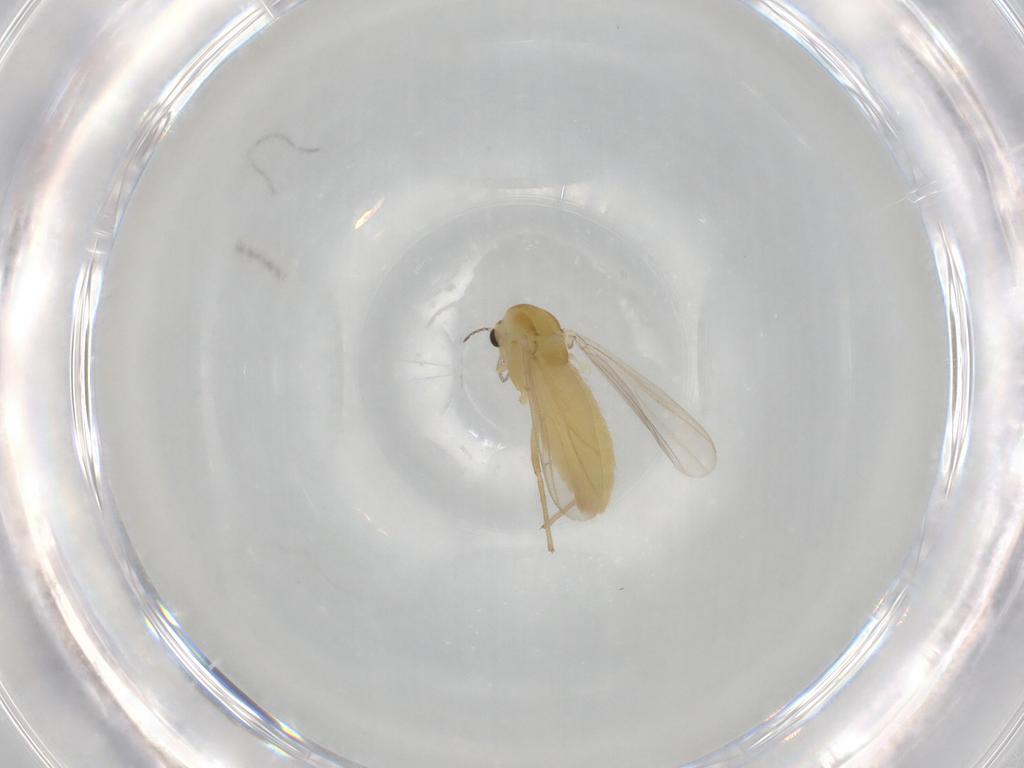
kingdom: Animalia
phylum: Arthropoda
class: Insecta
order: Diptera
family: Chironomidae
